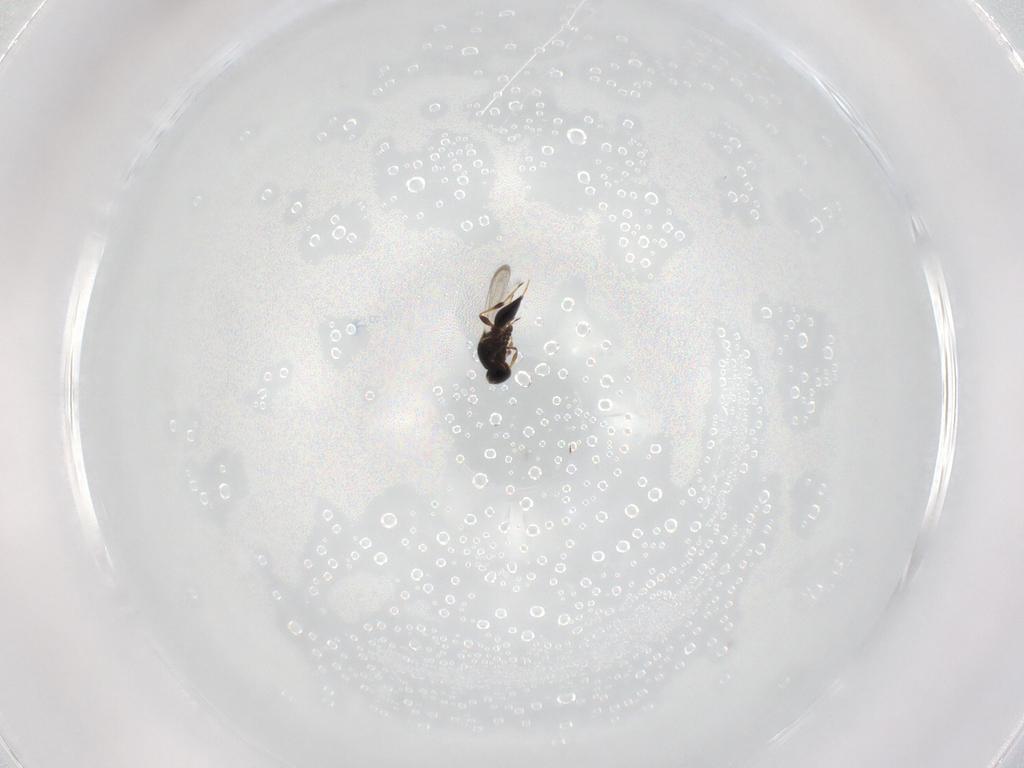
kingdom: Animalia
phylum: Arthropoda
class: Insecta
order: Hymenoptera
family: Platygastridae
